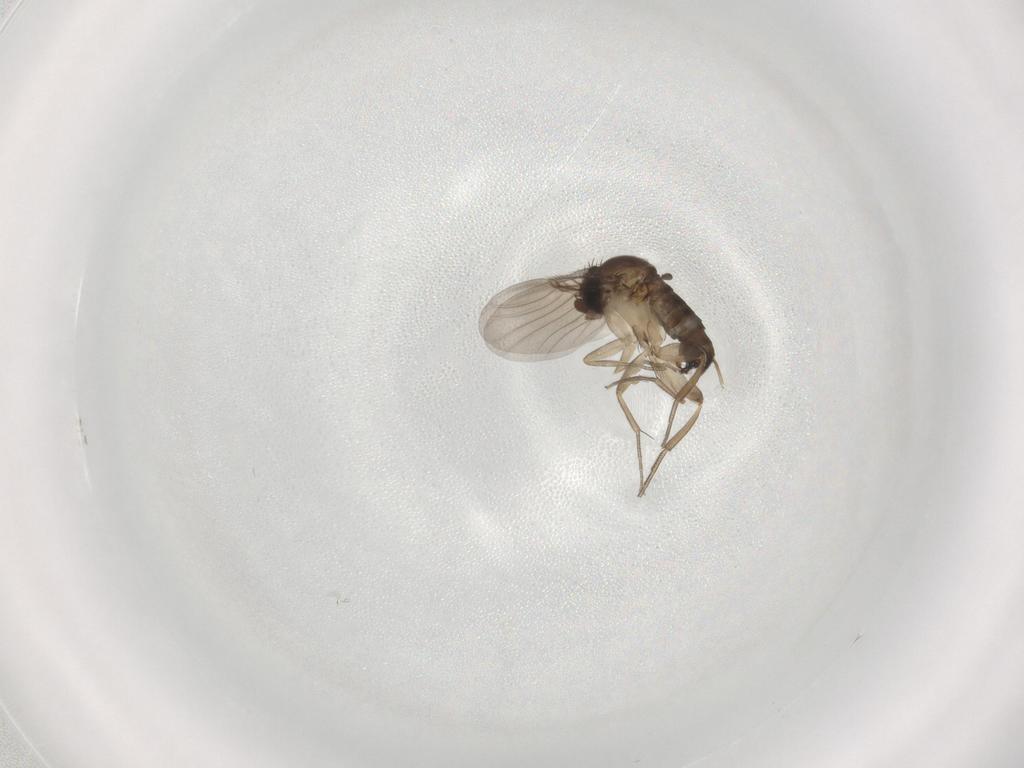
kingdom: Animalia
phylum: Arthropoda
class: Insecta
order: Diptera
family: Phoridae
